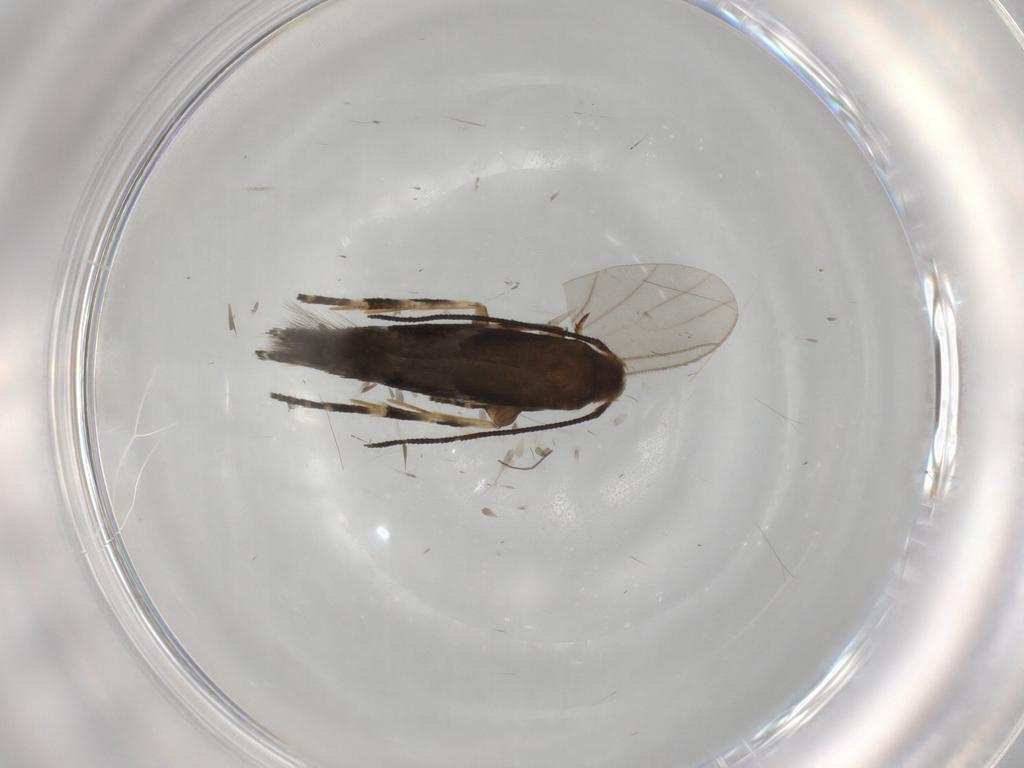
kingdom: Animalia
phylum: Arthropoda
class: Insecta
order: Lepidoptera
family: Momphidae
